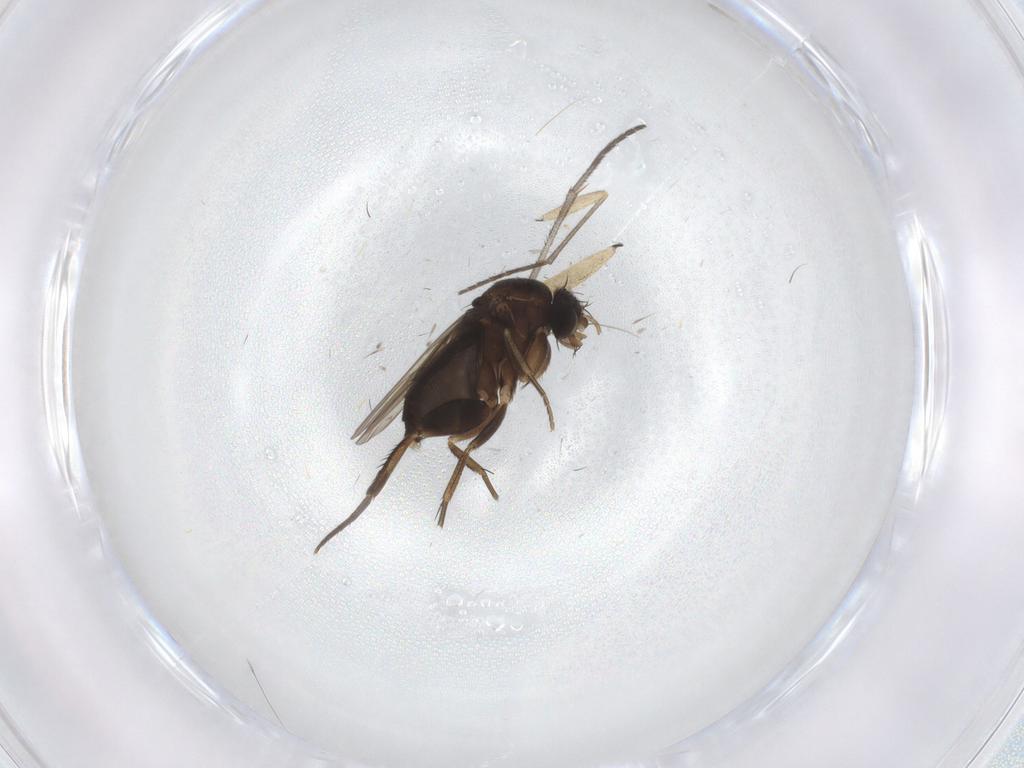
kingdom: Animalia
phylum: Arthropoda
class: Insecta
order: Diptera
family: Phoridae
